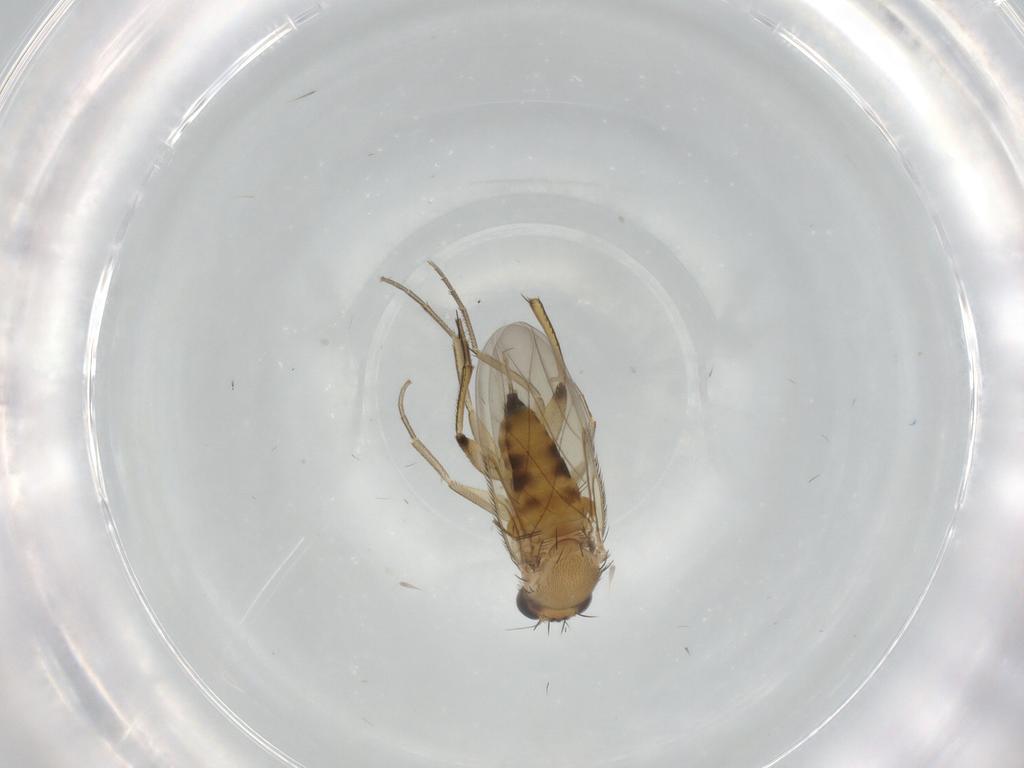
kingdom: Animalia
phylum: Arthropoda
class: Insecta
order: Diptera
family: Phoridae
